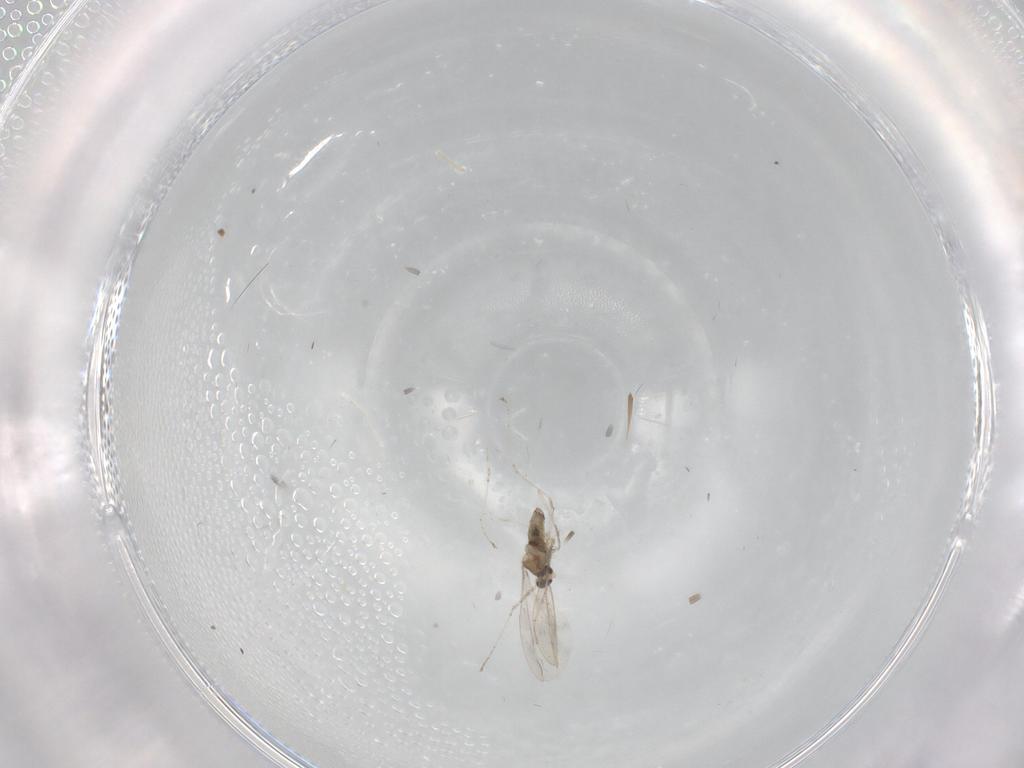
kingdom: Animalia
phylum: Arthropoda
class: Insecta
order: Diptera
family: Cecidomyiidae
